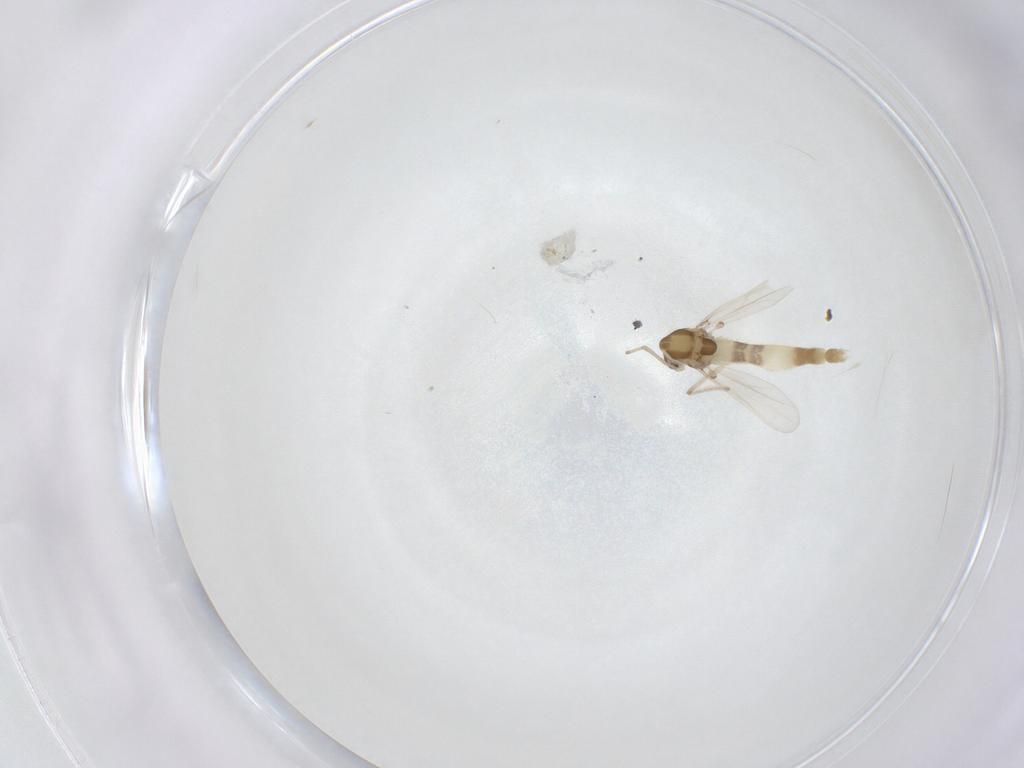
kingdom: Animalia
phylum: Arthropoda
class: Insecta
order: Diptera
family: Chironomidae
